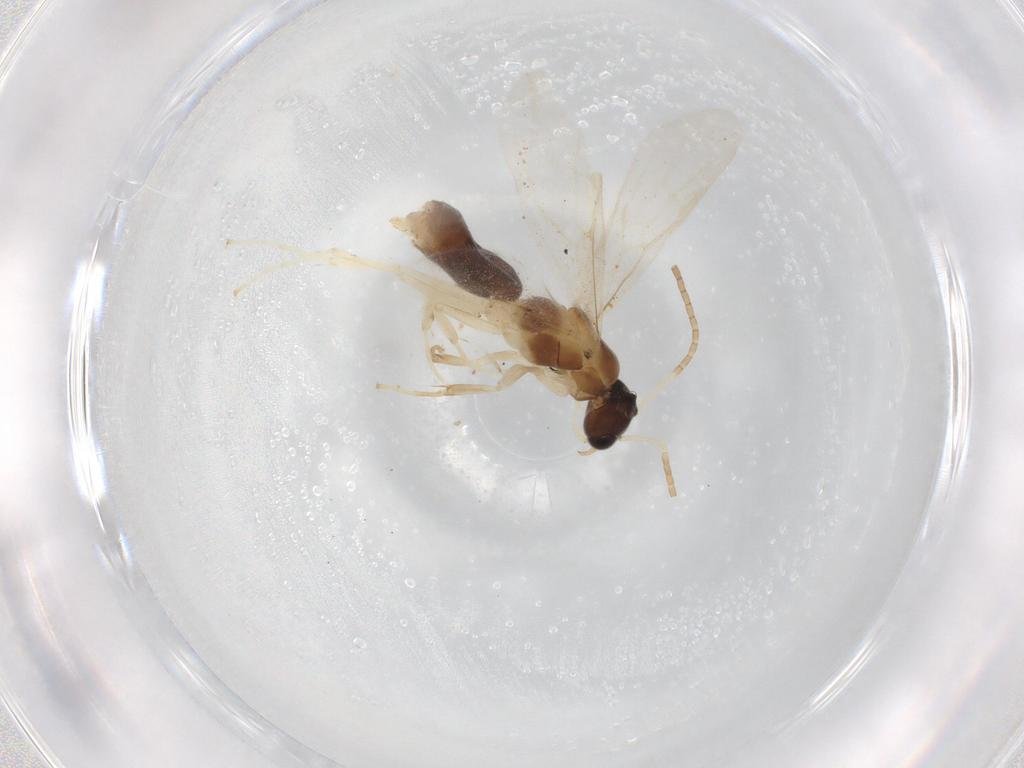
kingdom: Animalia
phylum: Arthropoda
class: Insecta
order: Hymenoptera
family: Formicidae
